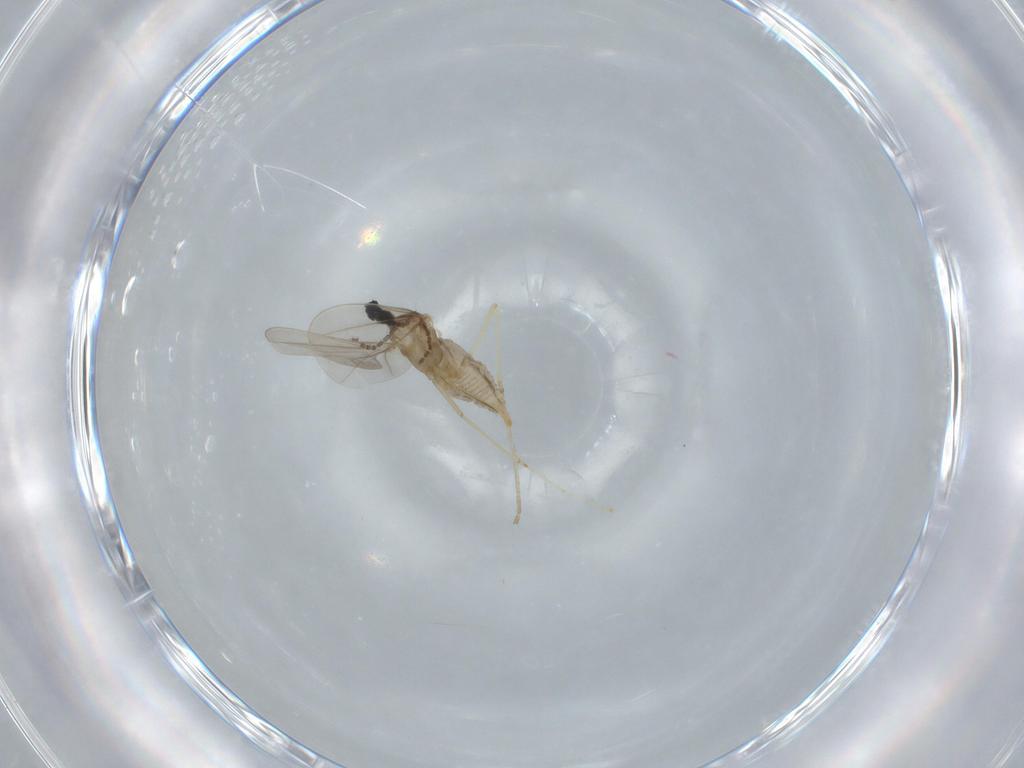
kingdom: Animalia
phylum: Arthropoda
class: Insecta
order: Diptera
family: Cecidomyiidae
